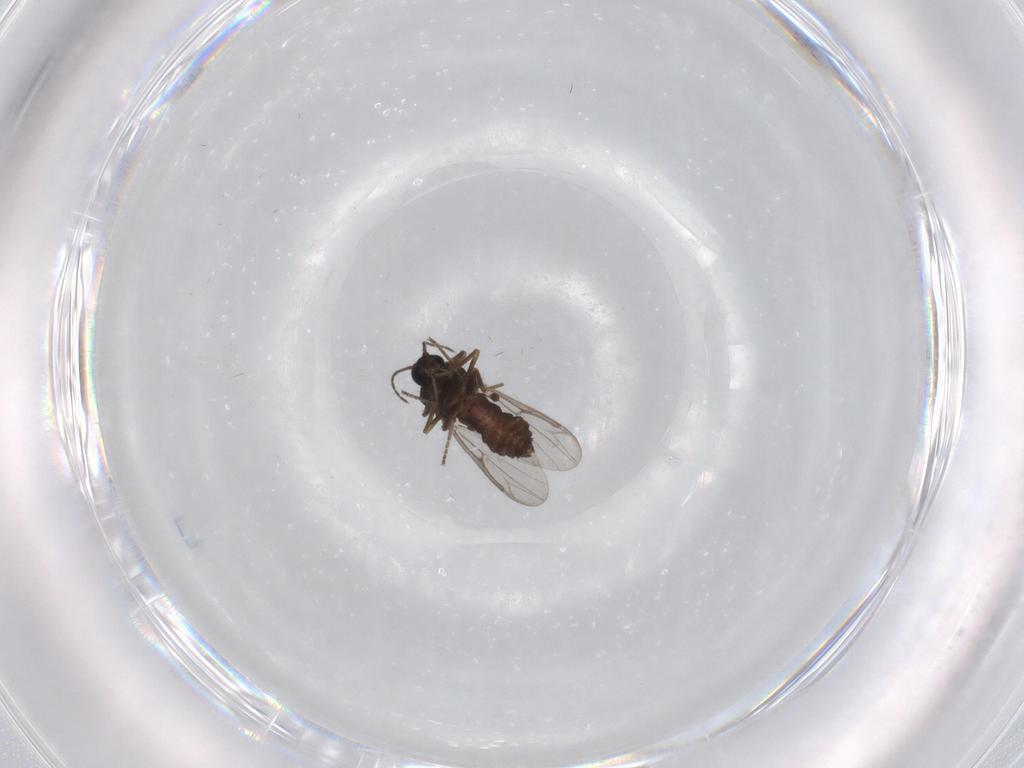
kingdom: Animalia
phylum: Arthropoda
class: Insecta
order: Diptera
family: Ceratopogonidae
